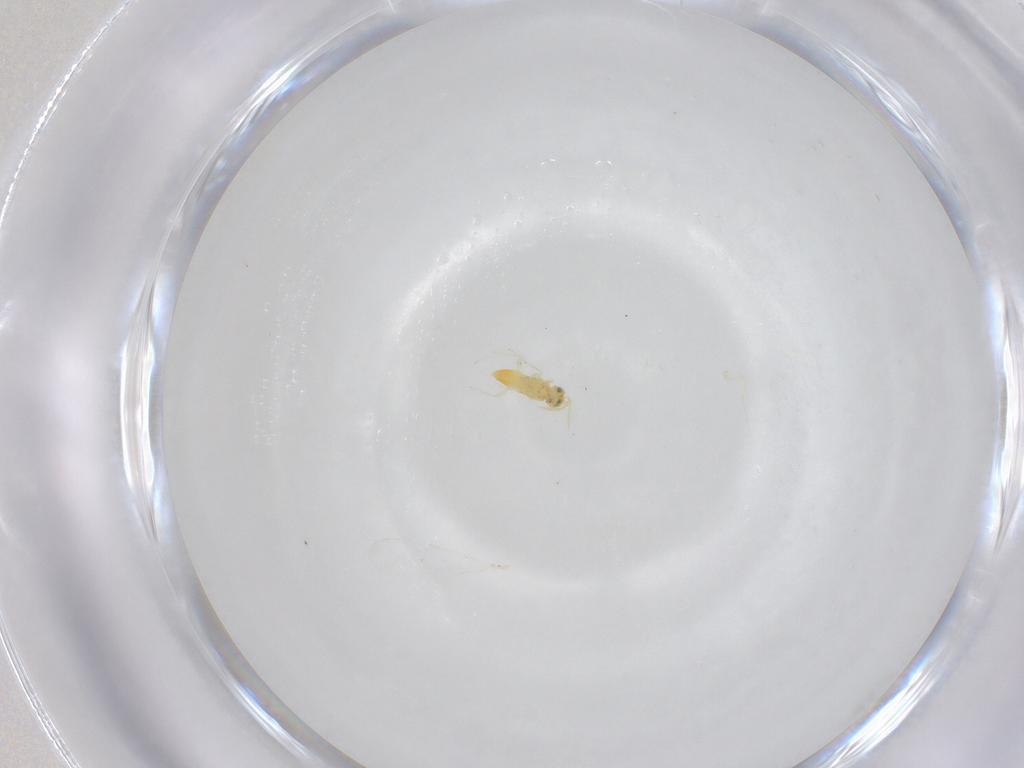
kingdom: Animalia
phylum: Arthropoda
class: Insecta
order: Hymenoptera
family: Aphelinidae
